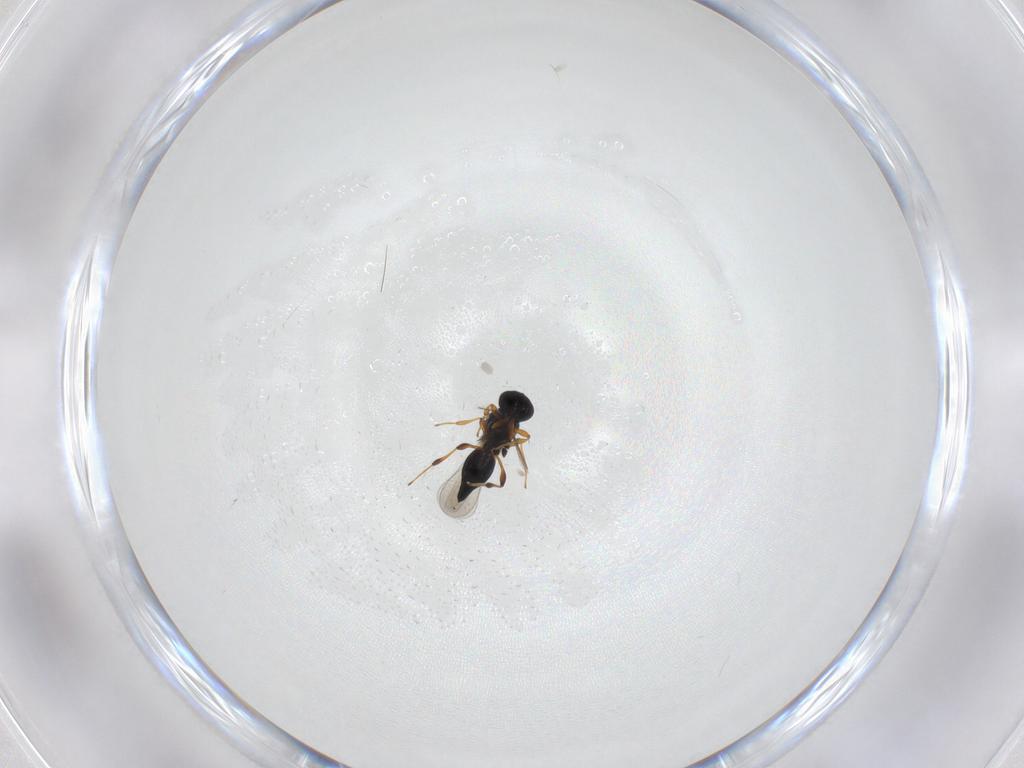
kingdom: Animalia
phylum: Arthropoda
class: Insecta
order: Hymenoptera
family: Platygastridae
